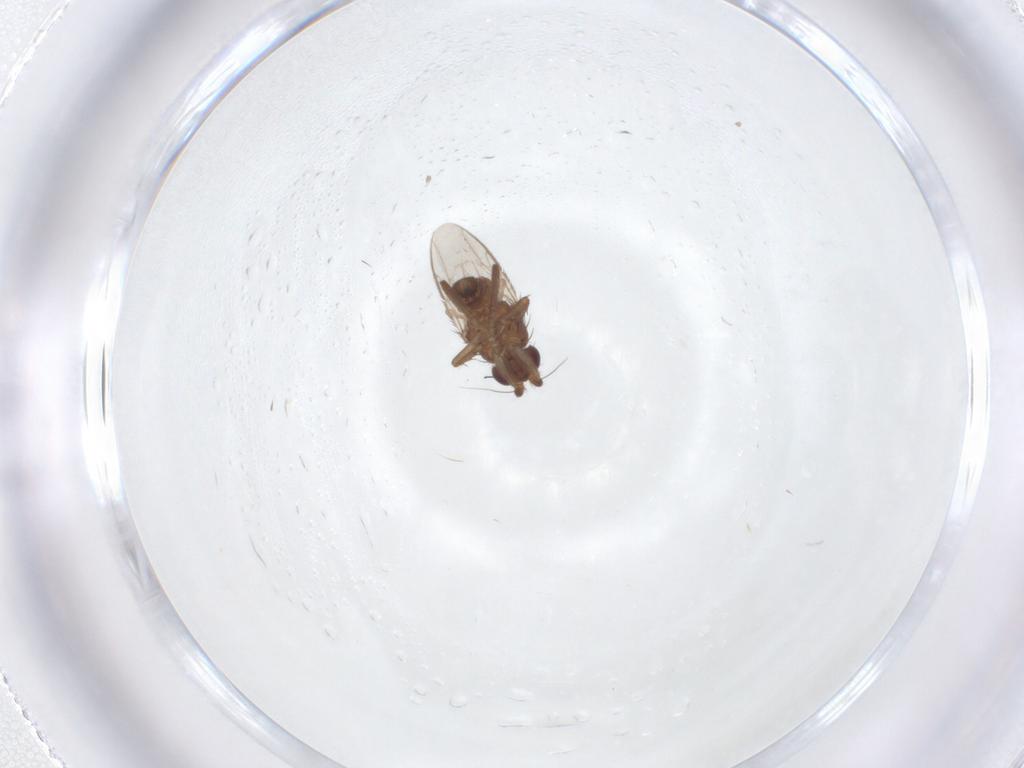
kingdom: Animalia
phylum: Arthropoda
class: Insecta
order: Diptera
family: Sphaeroceridae
